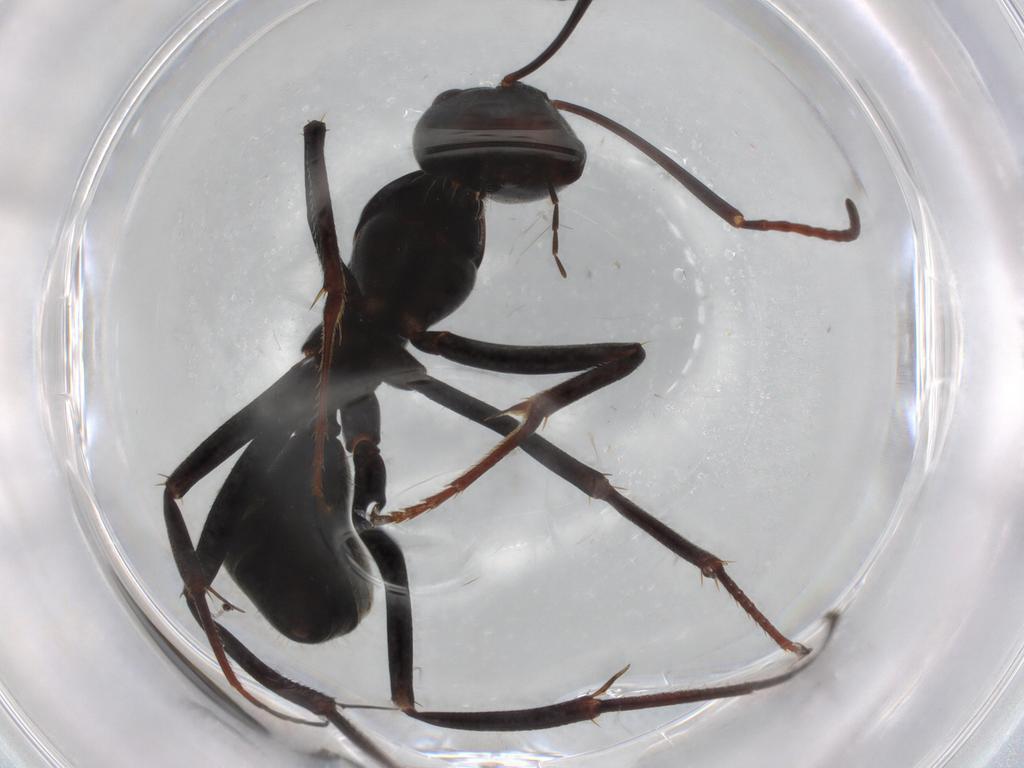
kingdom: Animalia
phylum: Arthropoda
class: Insecta
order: Hymenoptera
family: Formicidae
